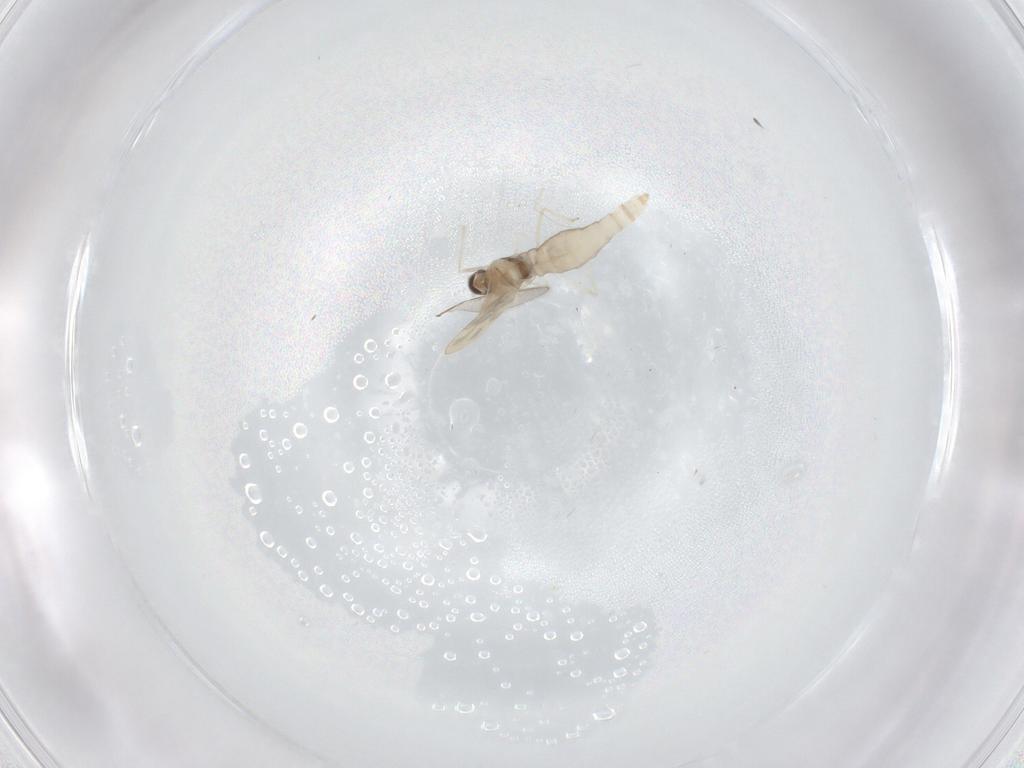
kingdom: Animalia
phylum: Arthropoda
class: Insecta
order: Diptera
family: Cecidomyiidae
